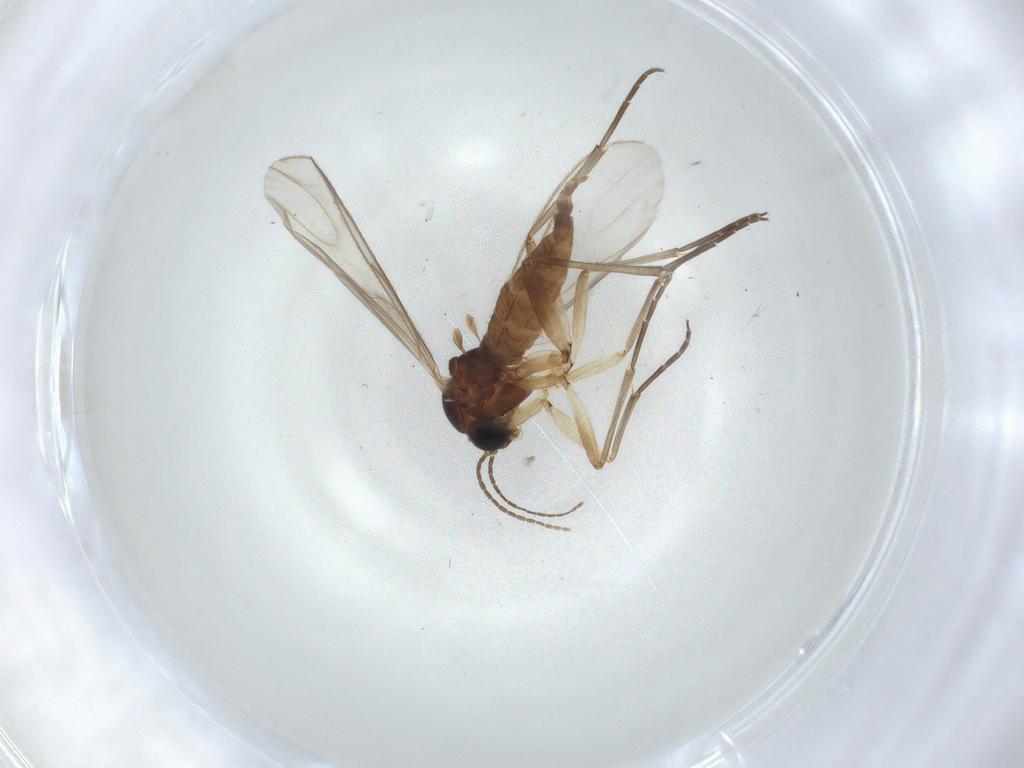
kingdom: Animalia
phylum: Arthropoda
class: Insecta
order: Diptera
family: Sciaridae
